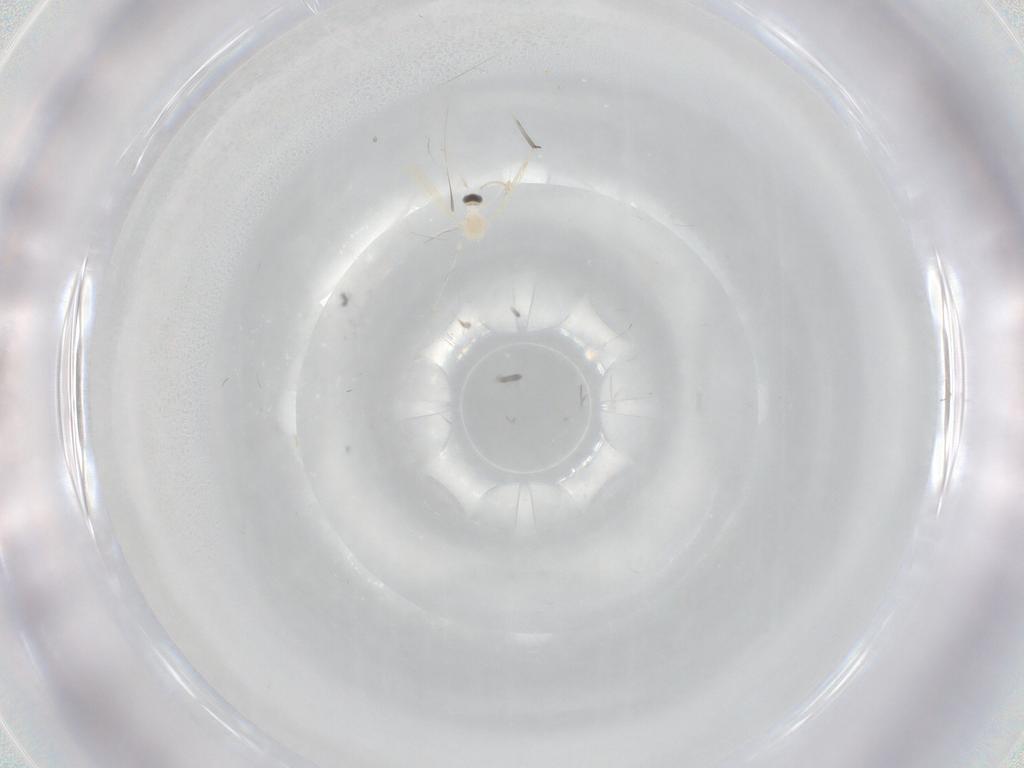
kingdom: Animalia
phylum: Arthropoda
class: Insecta
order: Diptera
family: Cecidomyiidae
